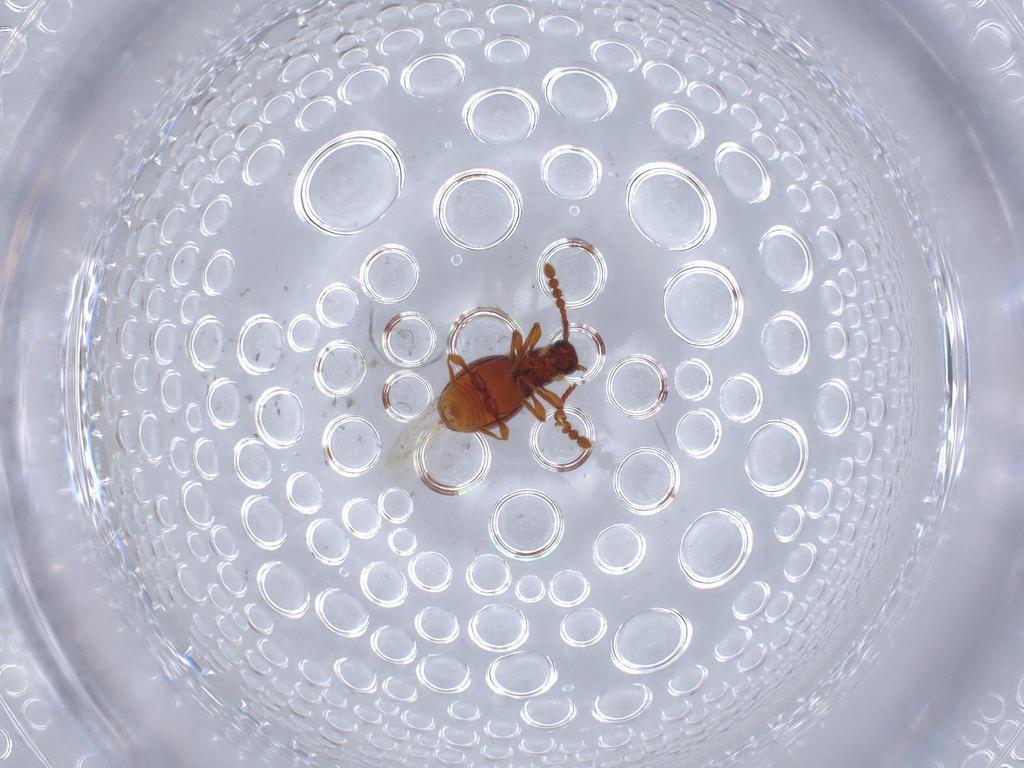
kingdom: Animalia
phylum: Arthropoda
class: Insecta
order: Coleoptera
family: Staphylinidae
